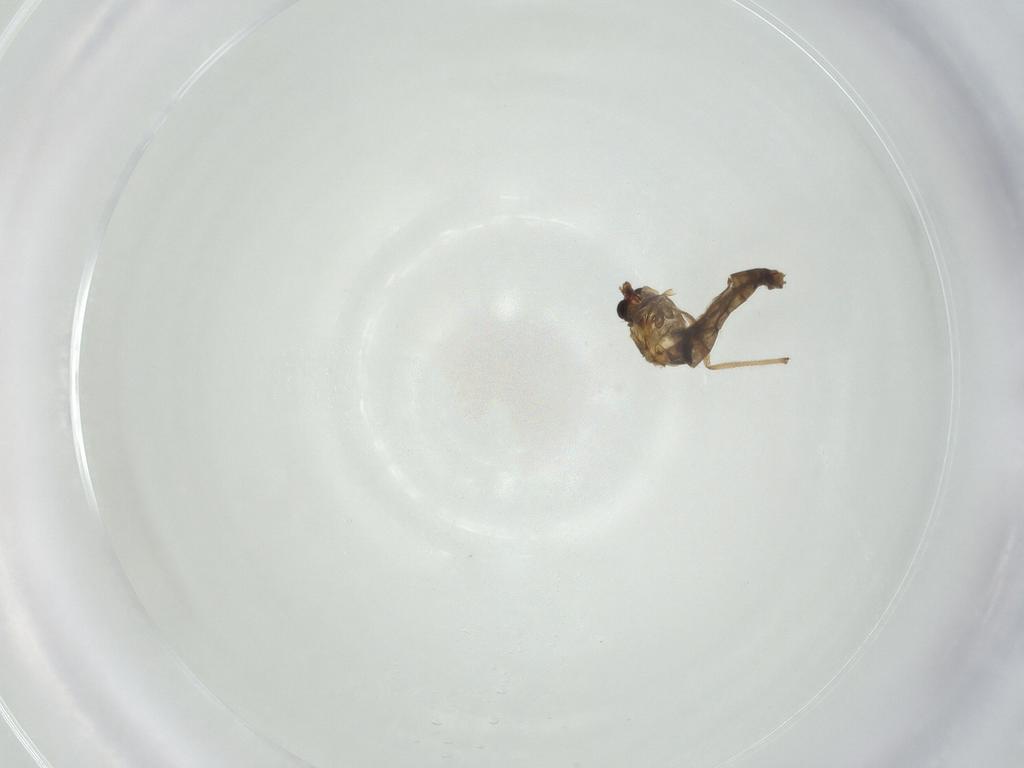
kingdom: Animalia
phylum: Arthropoda
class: Insecta
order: Diptera
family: Chironomidae
